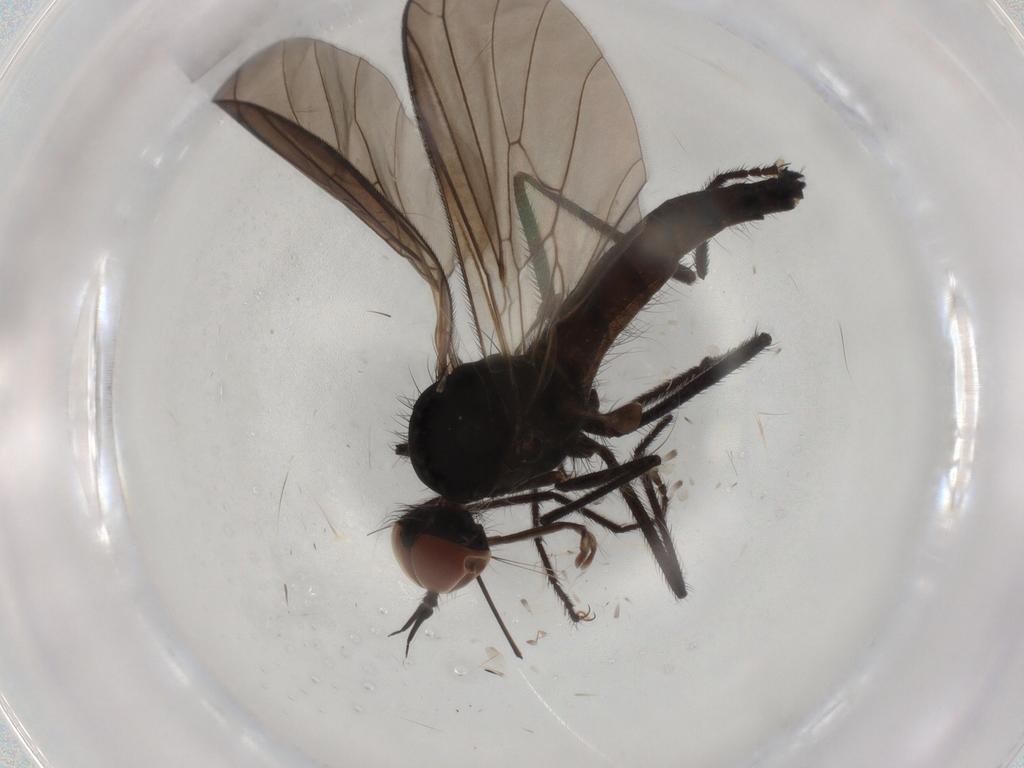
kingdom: Animalia
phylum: Arthropoda
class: Insecta
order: Diptera
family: Empididae
